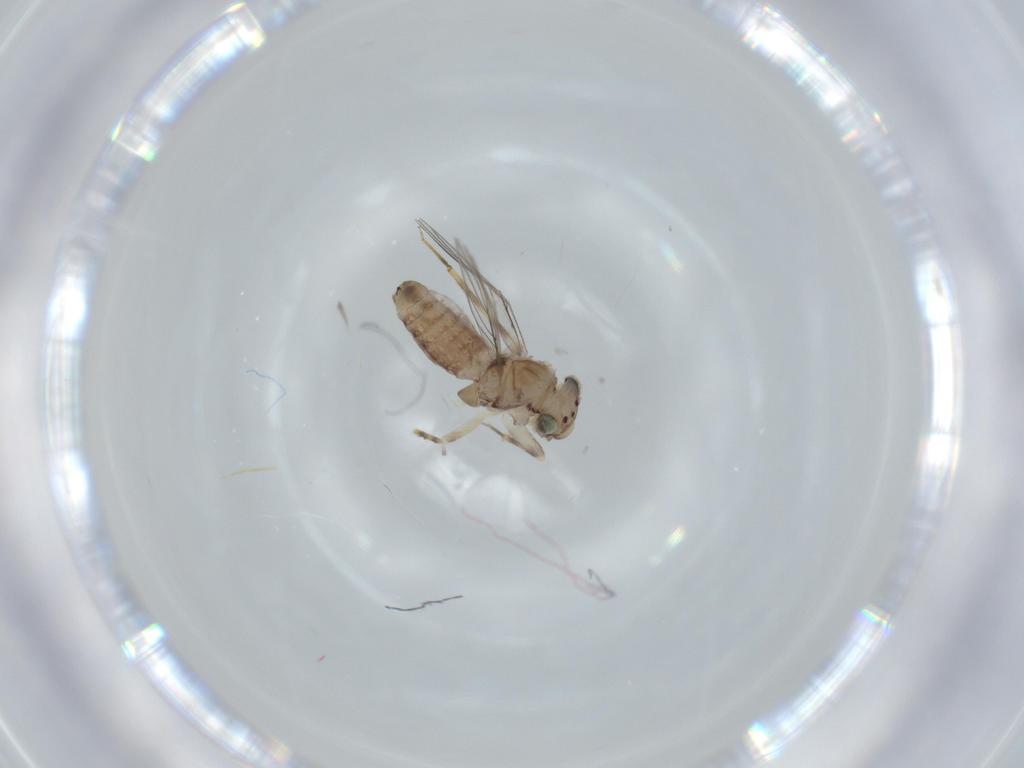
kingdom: Animalia
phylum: Arthropoda
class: Insecta
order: Psocodea
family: Lepidopsocidae
